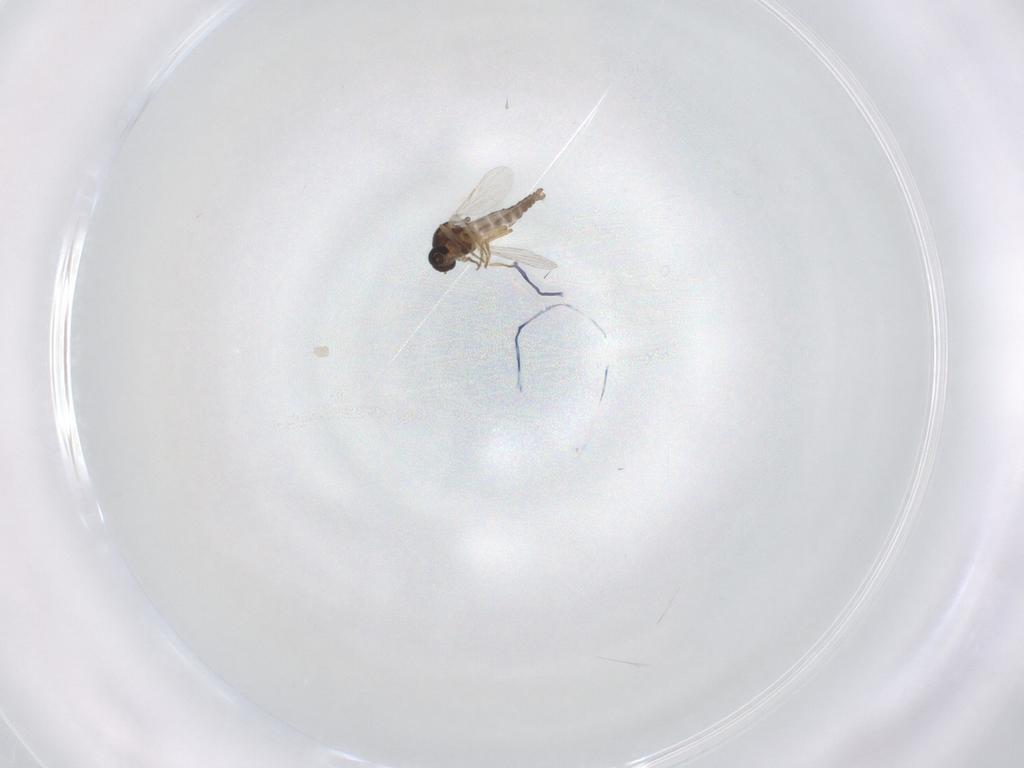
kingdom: Animalia
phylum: Arthropoda
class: Insecta
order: Diptera
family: Ceratopogonidae
